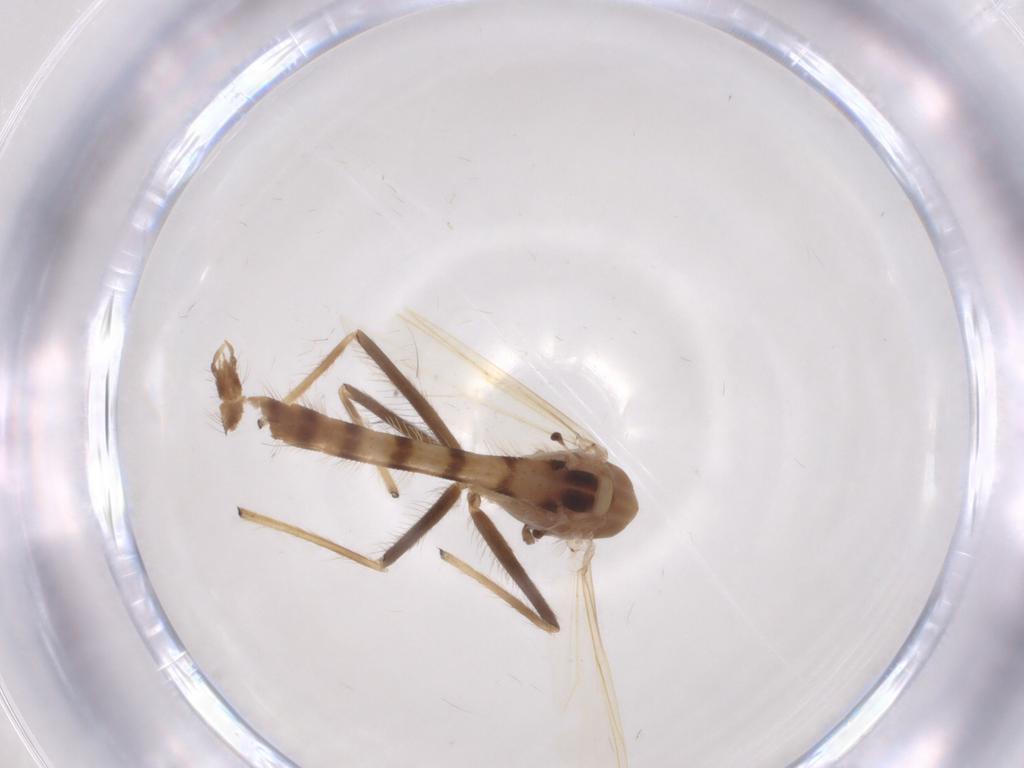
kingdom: Animalia
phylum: Arthropoda
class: Insecta
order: Diptera
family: Chironomidae
